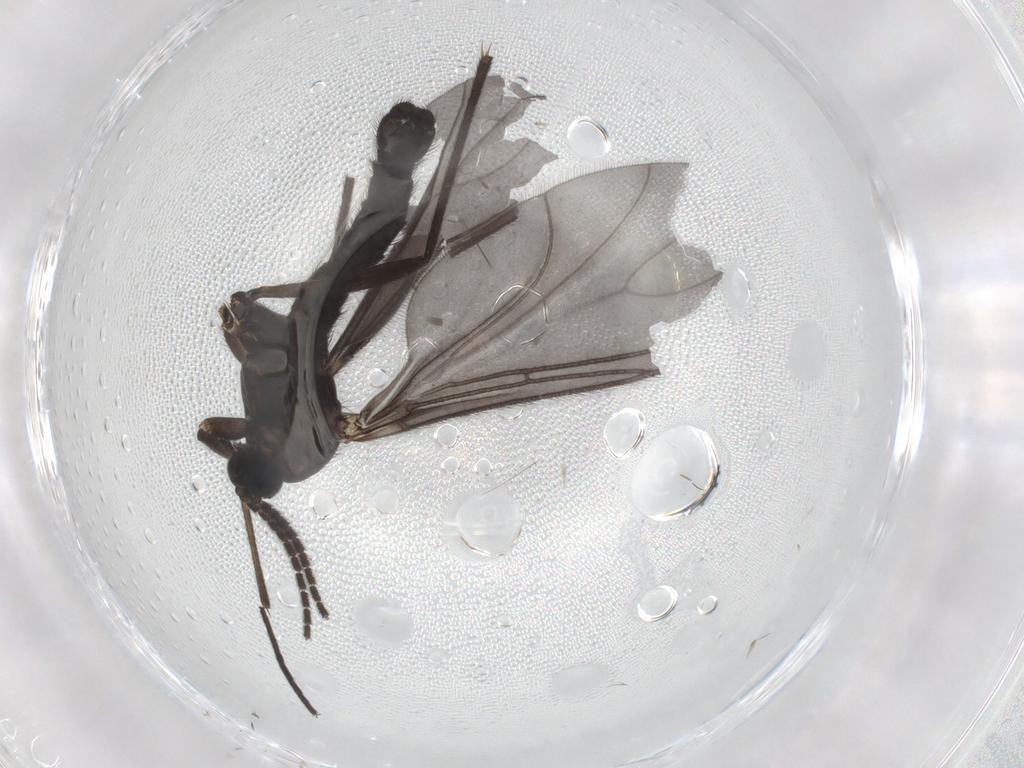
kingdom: Animalia
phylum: Arthropoda
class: Insecta
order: Diptera
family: Sciaridae
